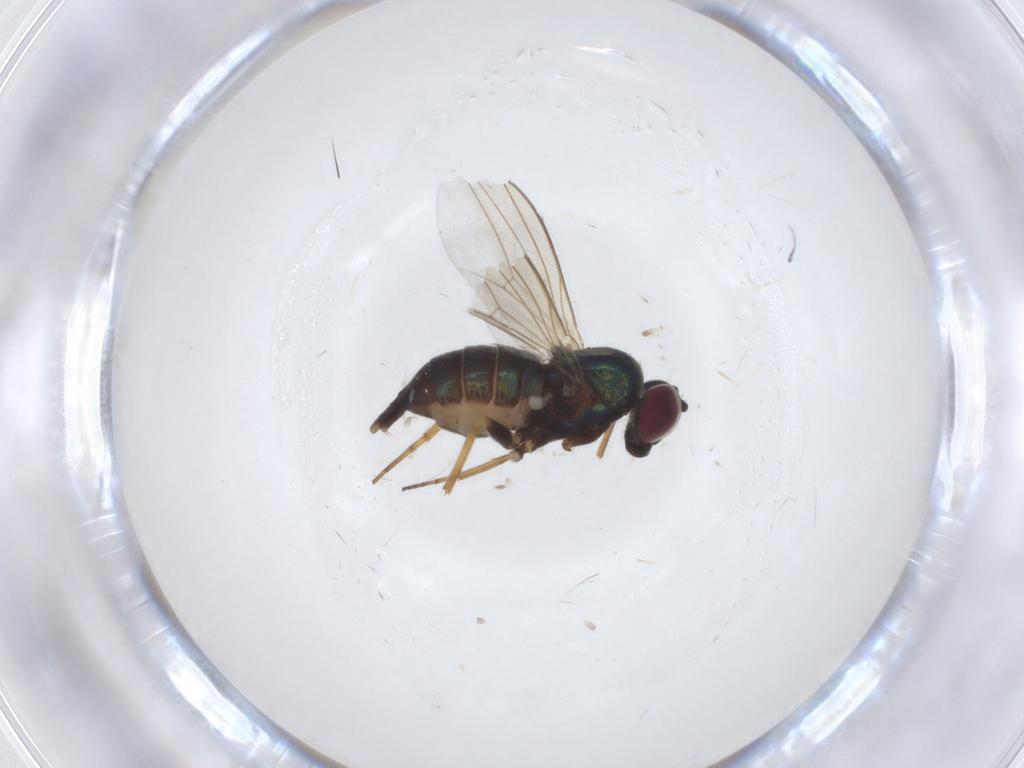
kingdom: Animalia
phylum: Arthropoda
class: Insecta
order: Diptera
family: Dolichopodidae
